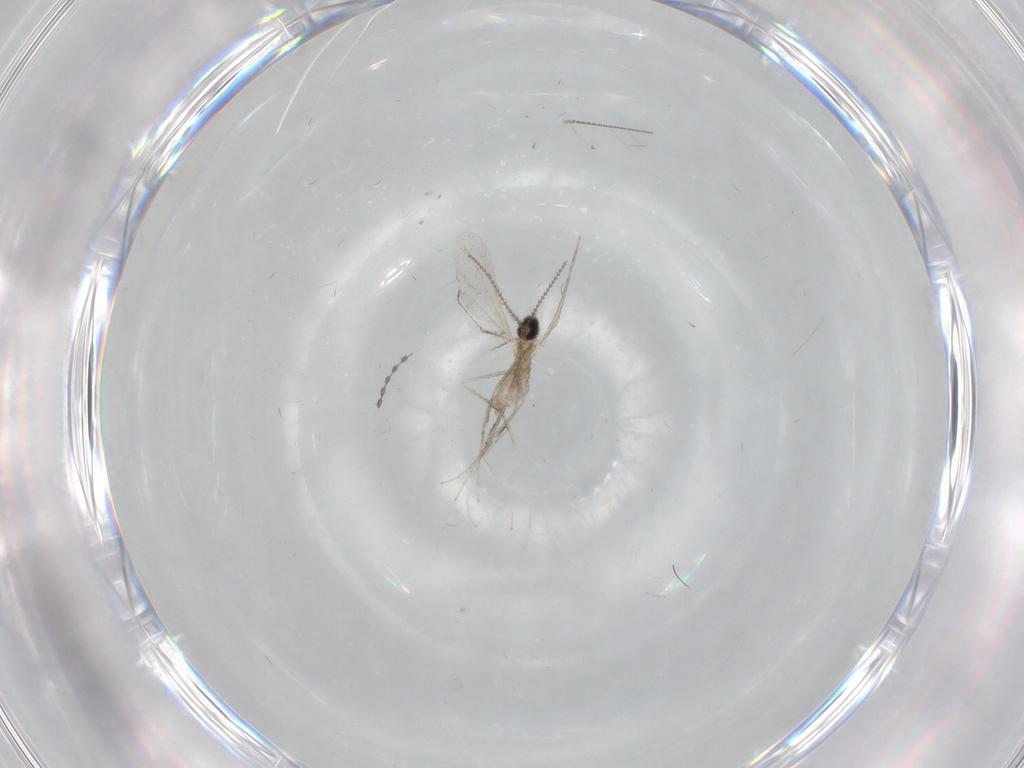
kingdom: Animalia
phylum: Arthropoda
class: Insecta
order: Diptera
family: Cecidomyiidae
